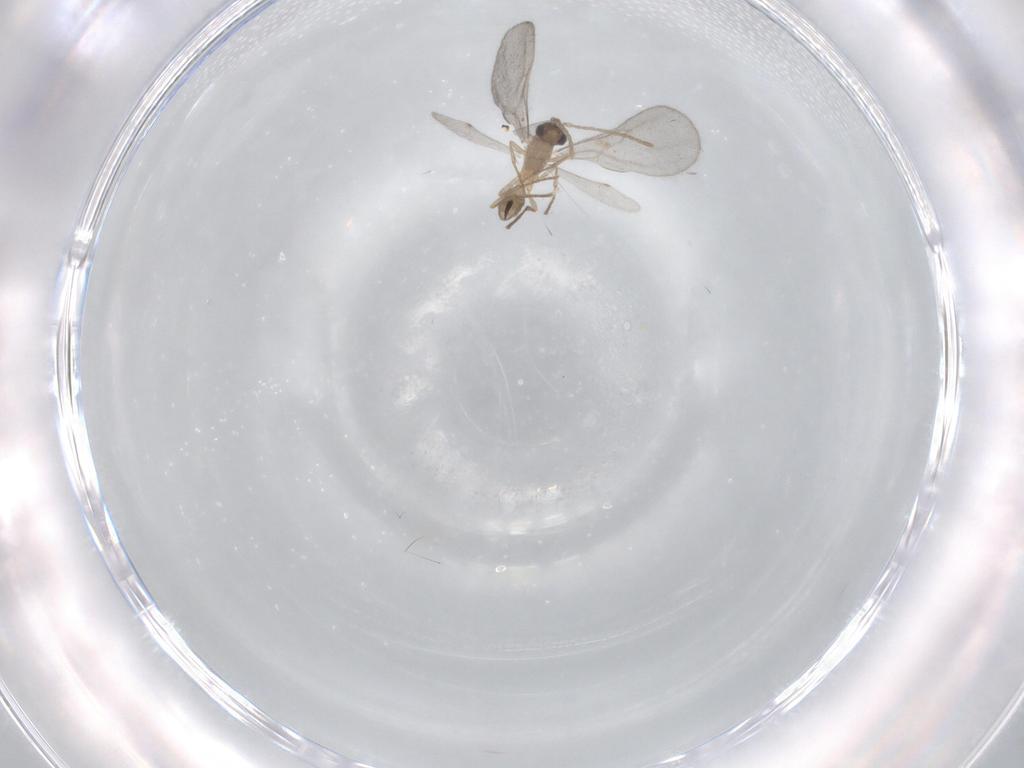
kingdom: Animalia
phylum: Arthropoda
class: Insecta
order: Hymenoptera
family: Formicidae
